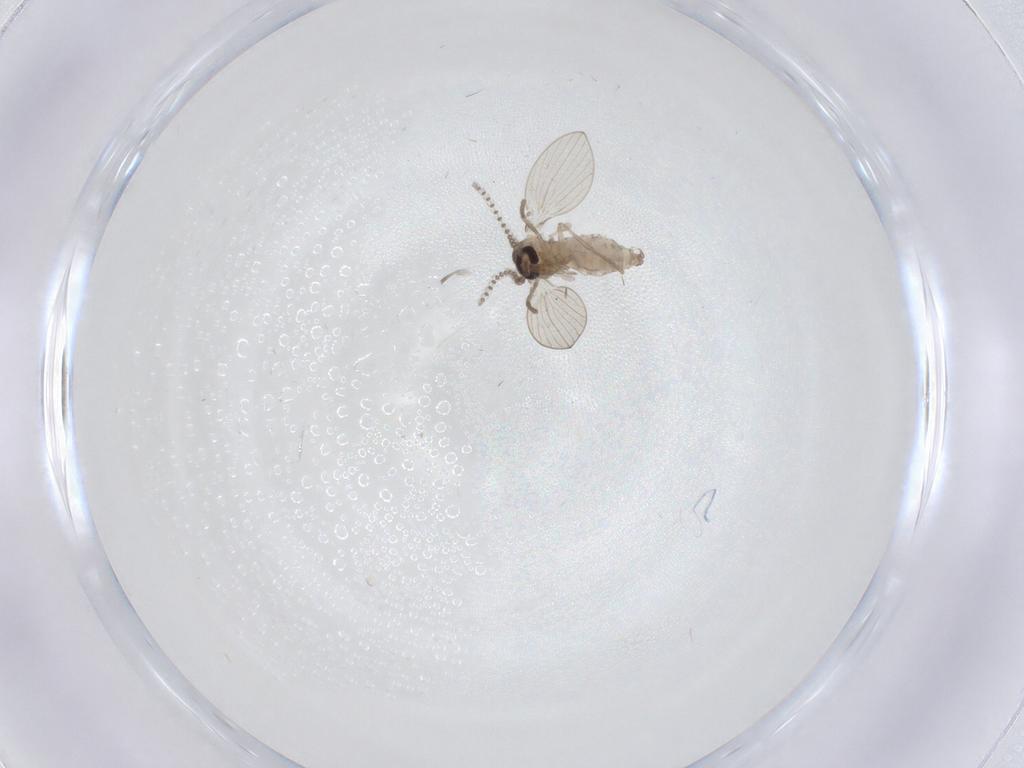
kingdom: Animalia
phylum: Arthropoda
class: Insecta
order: Diptera
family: Psychodidae
